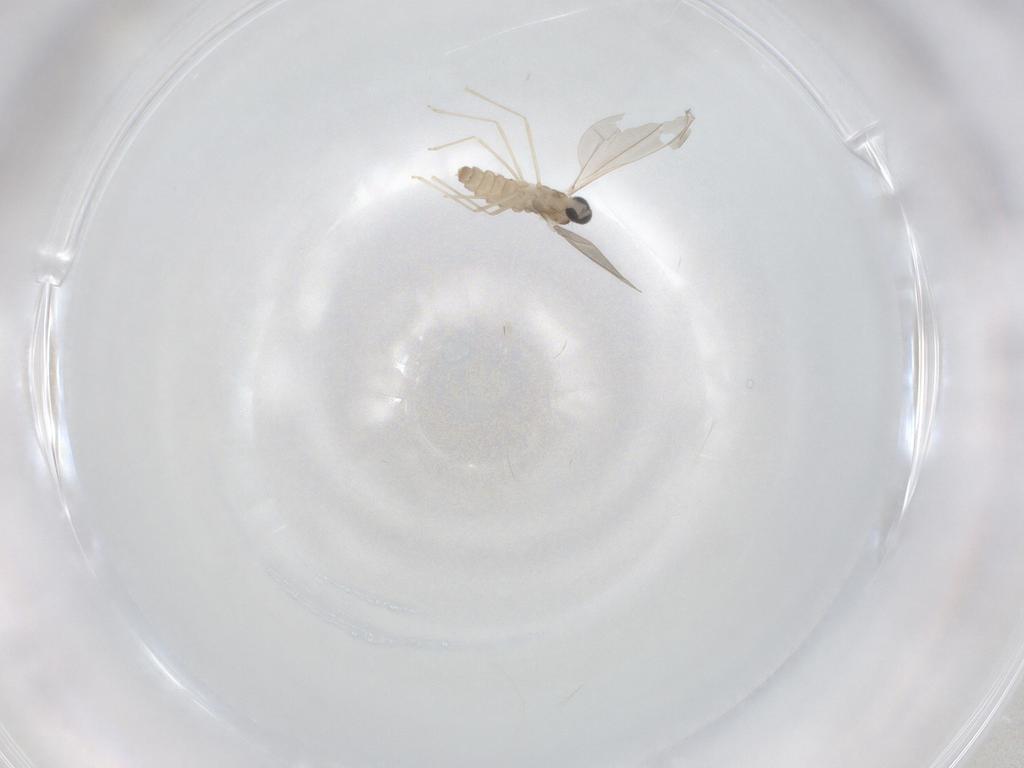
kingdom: Animalia
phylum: Arthropoda
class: Insecta
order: Diptera
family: Cecidomyiidae
